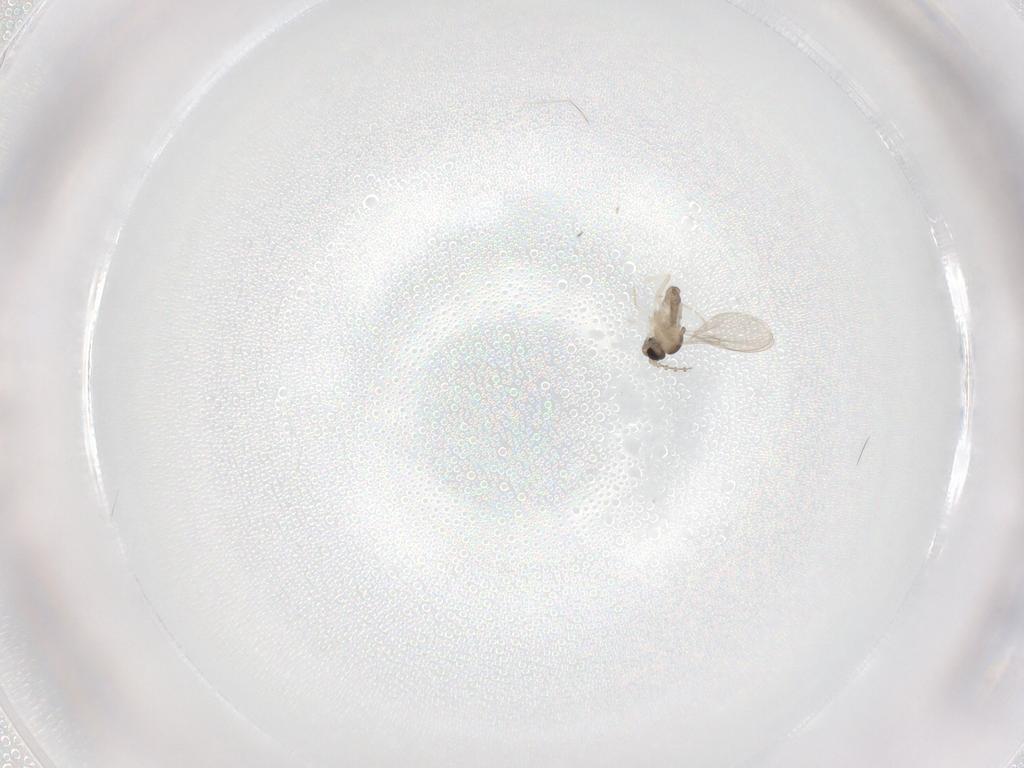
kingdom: Animalia
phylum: Arthropoda
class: Insecta
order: Diptera
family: Cecidomyiidae
